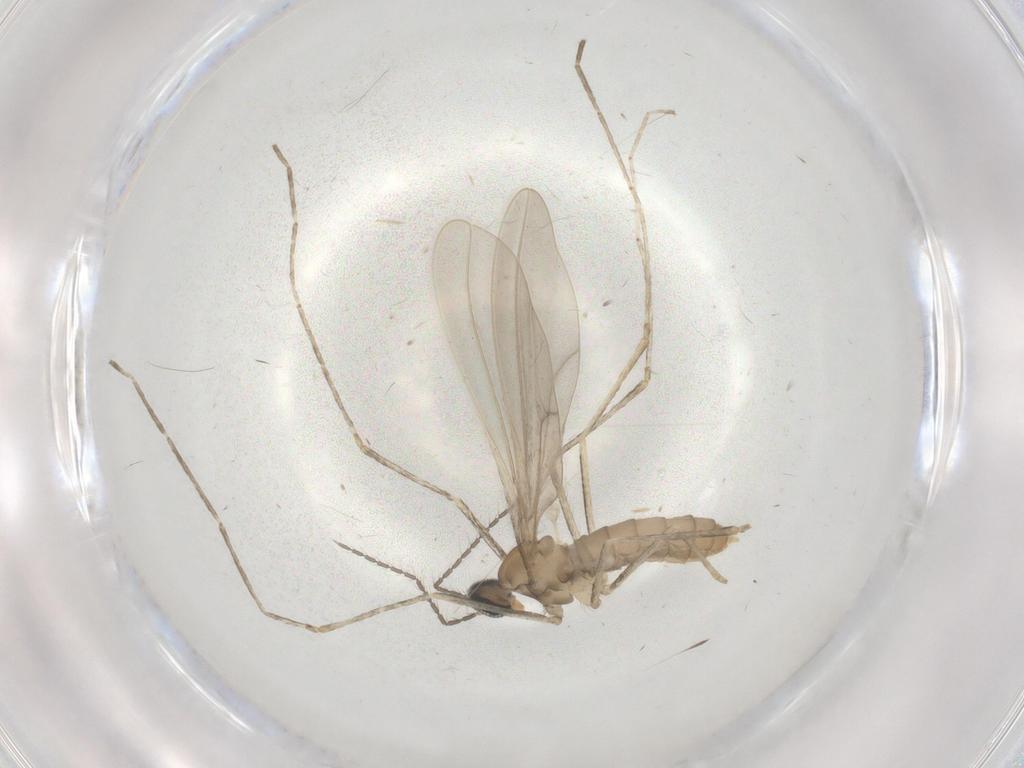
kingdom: Animalia
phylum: Arthropoda
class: Insecta
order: Diptera
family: Cecidomyiidae
